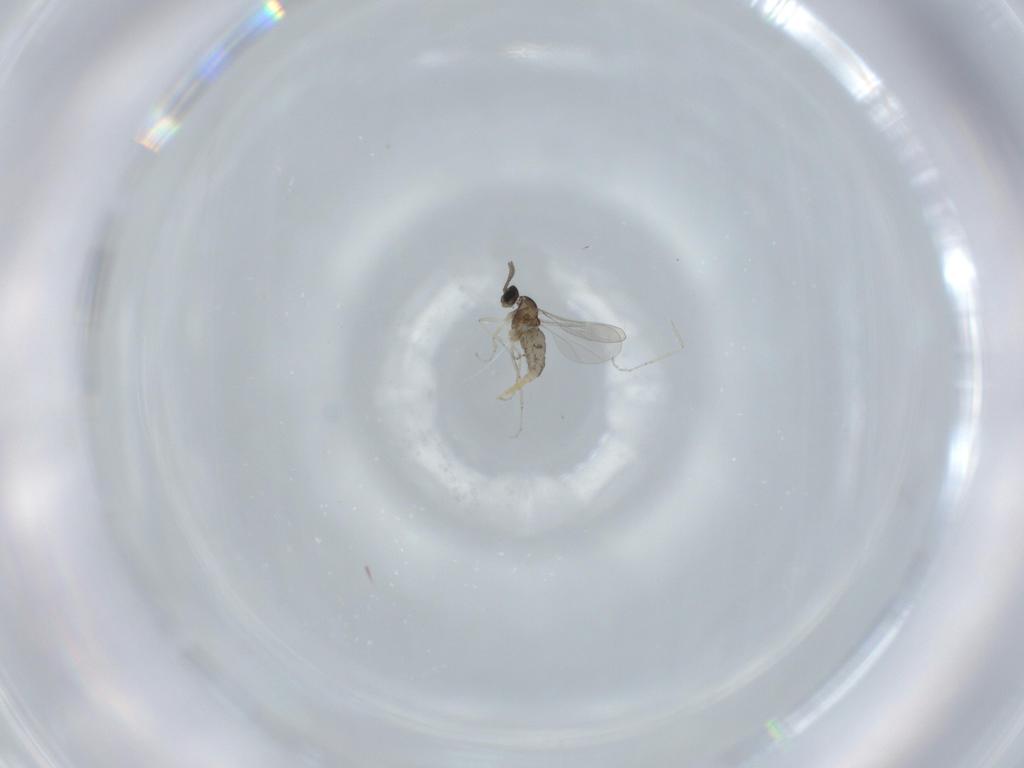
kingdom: Animalia
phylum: Arthropoda
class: Insecta
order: Diptera
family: Cecidomyiidae
